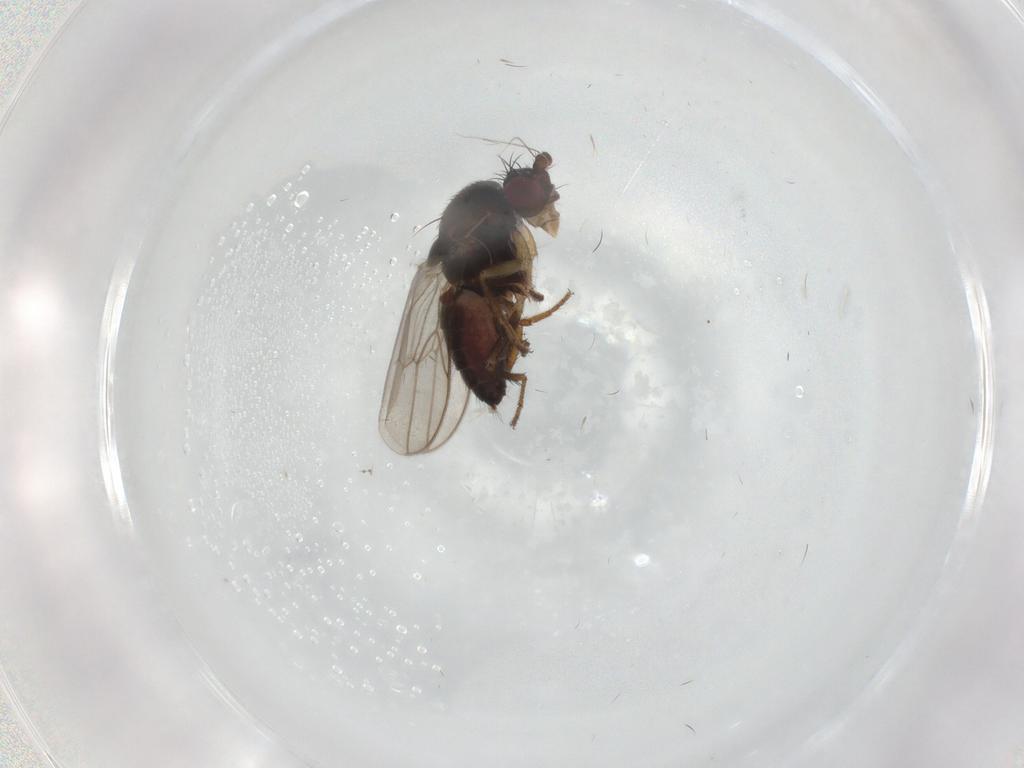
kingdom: Animalia
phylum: Arthropoda
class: Insecta
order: Diptera
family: Sphaeroceridae
